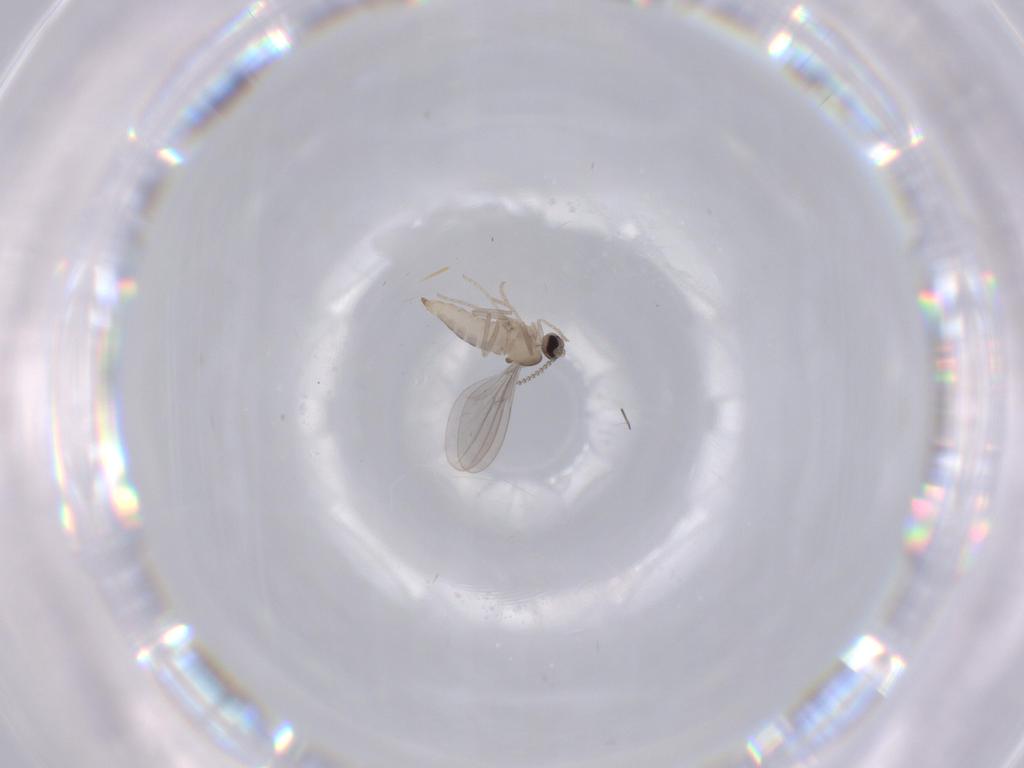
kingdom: Animalia
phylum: Arthropoda
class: Insecta
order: Diptera
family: Cecidomyiidae
